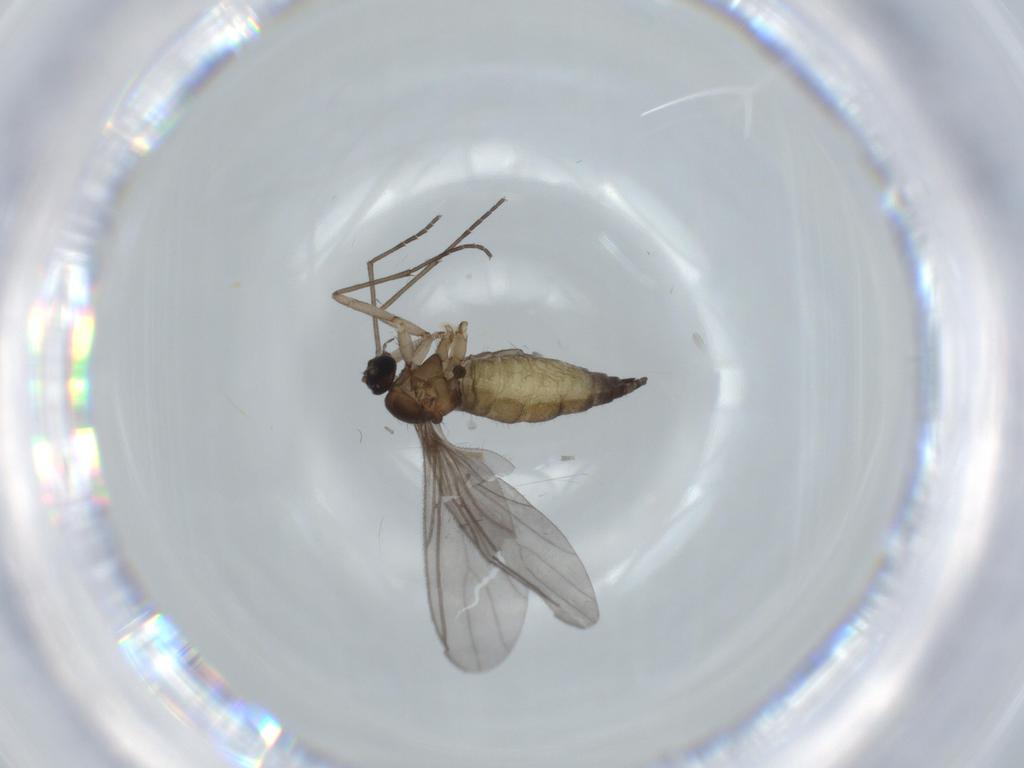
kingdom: Animalia
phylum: Arthropoda
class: Insecta
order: Diptera
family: Sciaridae
